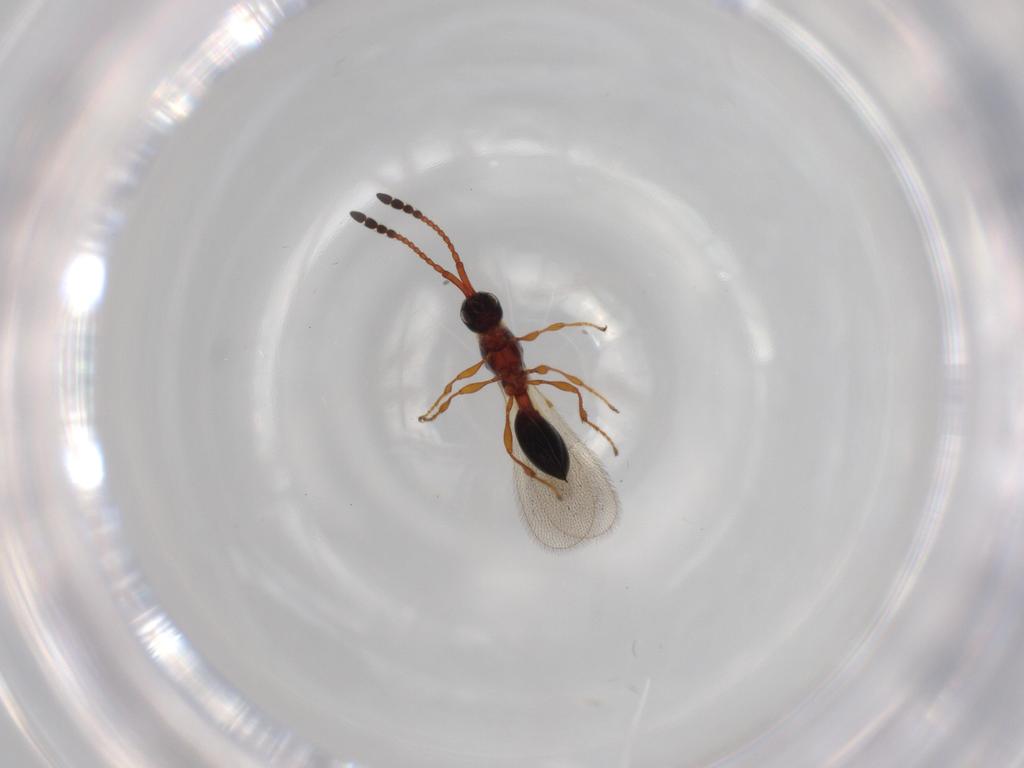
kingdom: Animalia
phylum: Arthropoda
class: Insecta
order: Hymenoptera
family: Diapriidae
